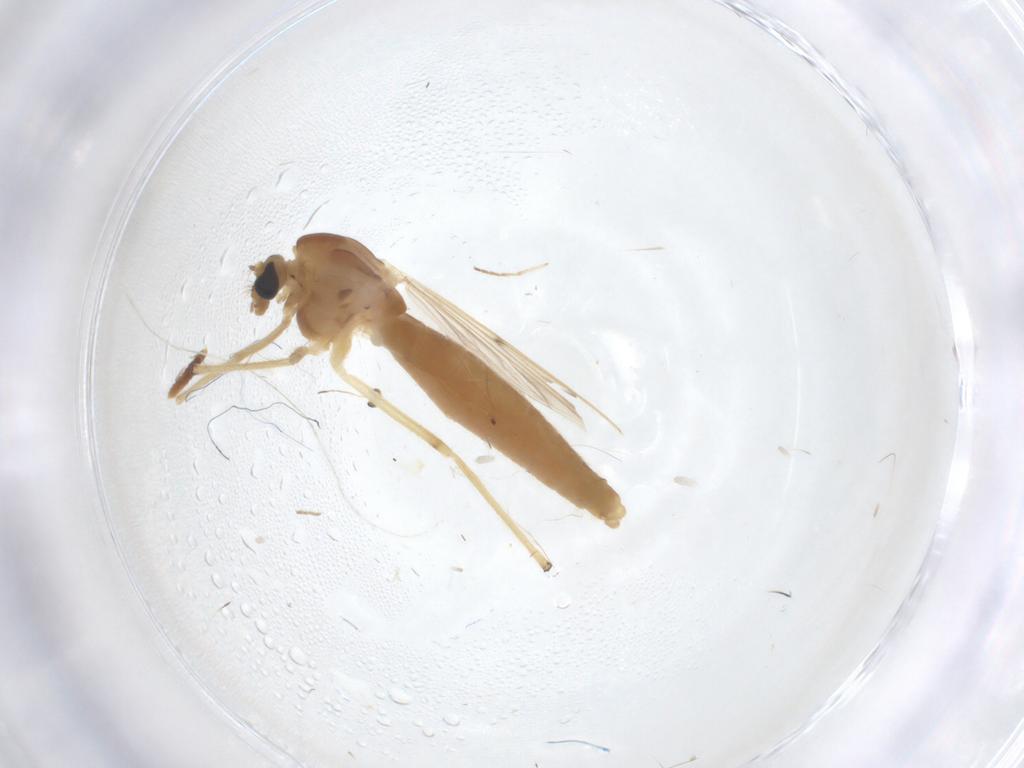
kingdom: Animalia
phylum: Arthropoda
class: Insecta
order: Diptera
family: Chironomidae
